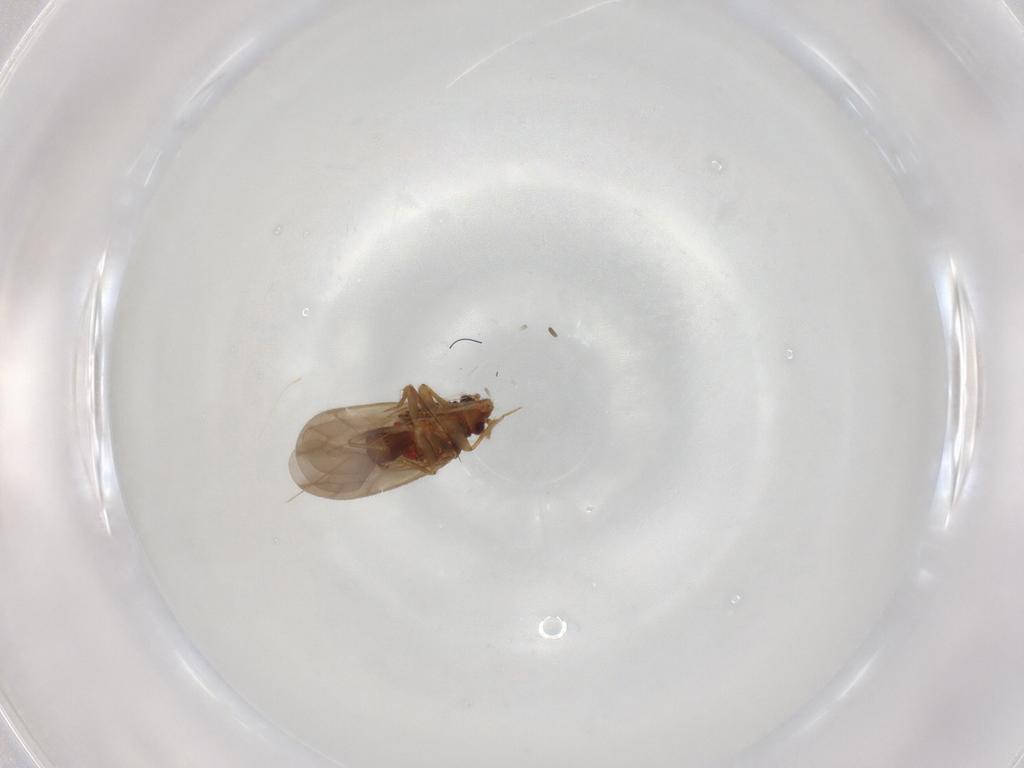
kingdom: Animalia
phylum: Arthropoda
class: Insecta
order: Hemiptera
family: Ceratocombidae
